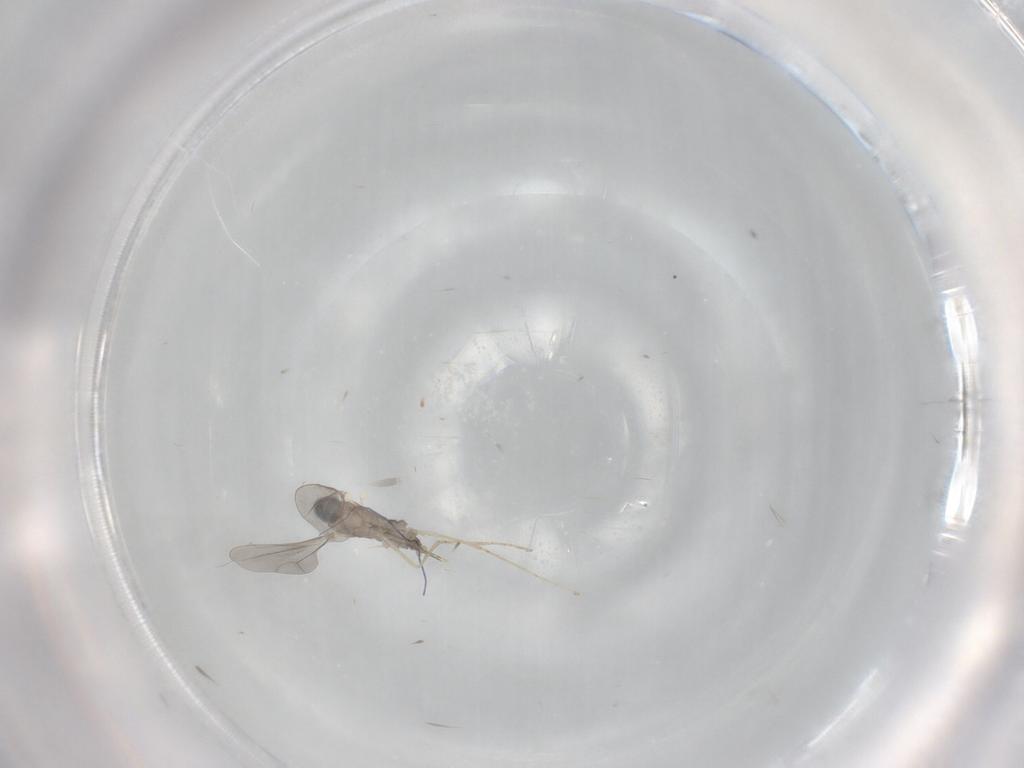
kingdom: Animalia
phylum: Arthropoda
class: Insecta
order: Diptera
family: Cecidomyiidae
